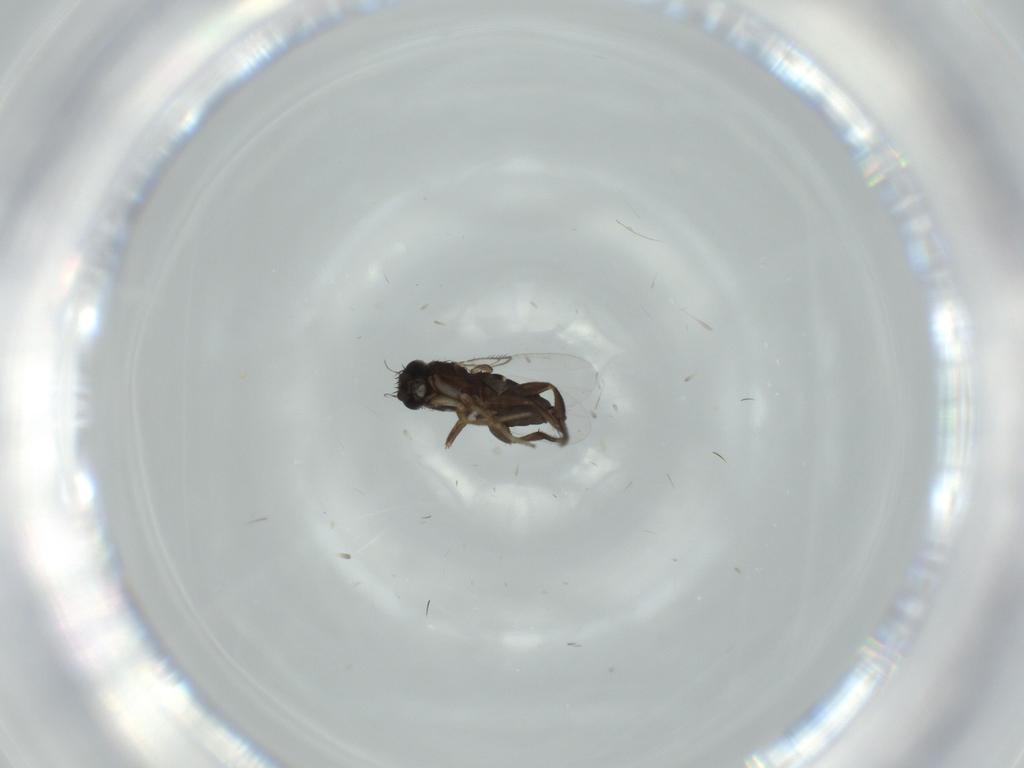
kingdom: Animalia
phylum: Arthropoda
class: Insecta
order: Diptera
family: Phoridae
